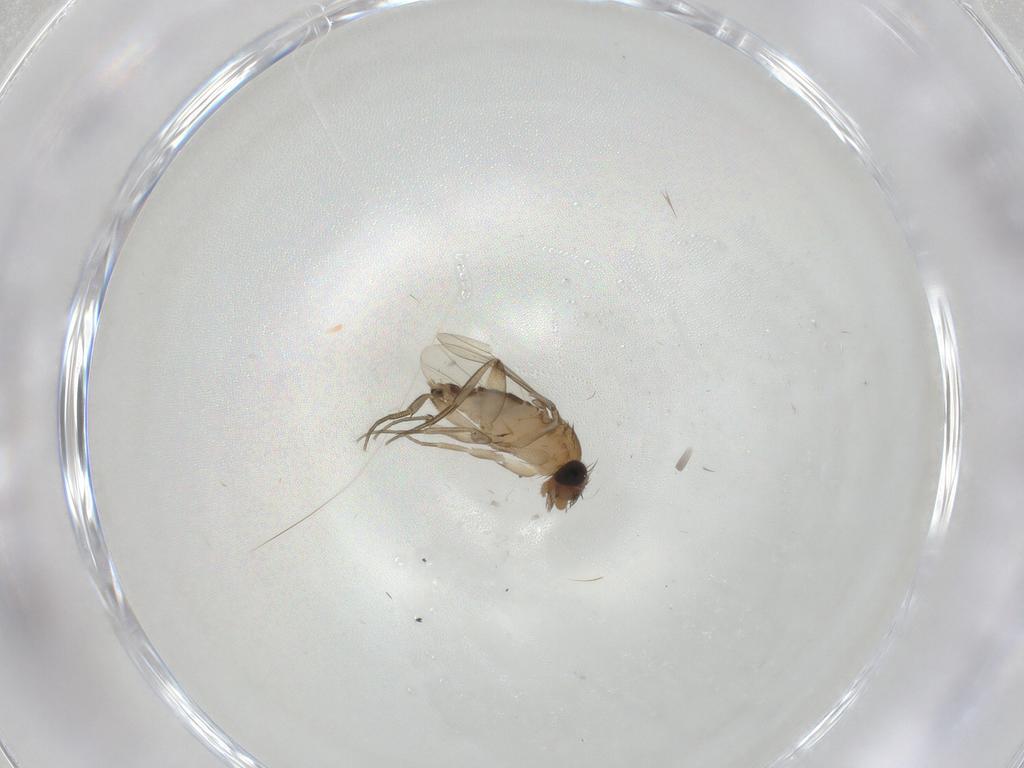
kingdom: Animalia
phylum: Arthropoda
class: Insecta
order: Diptera
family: Phoridae
